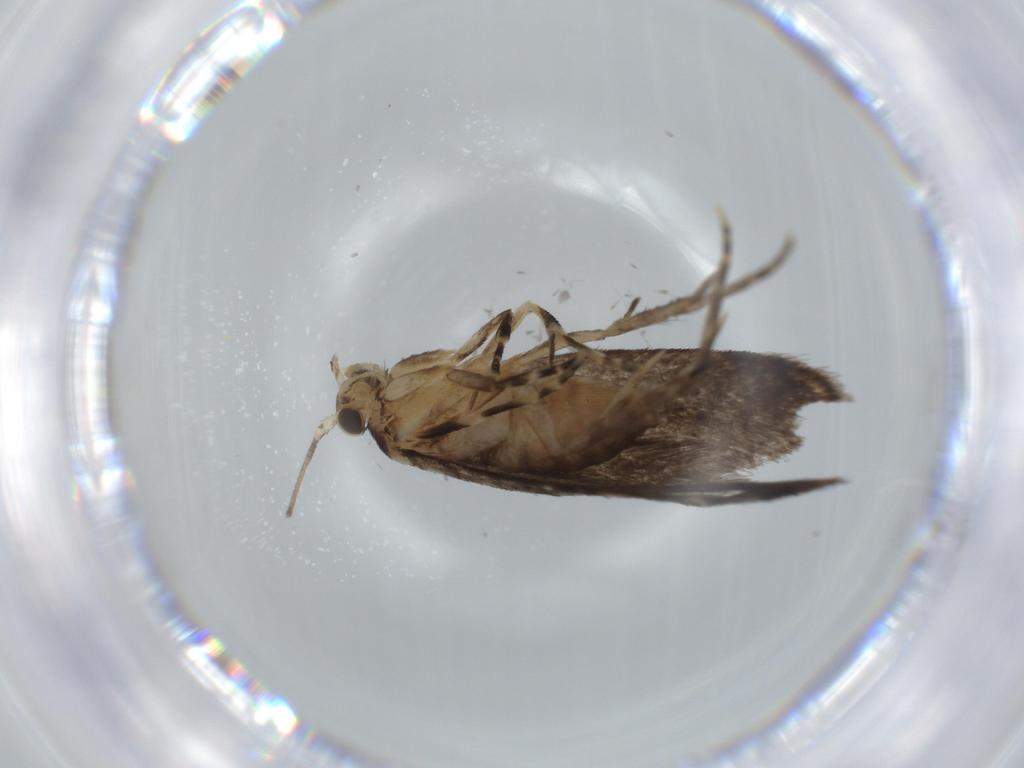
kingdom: Animalia
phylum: Arthropoda
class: Insecta
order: Lepidoptera
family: Tineidae
